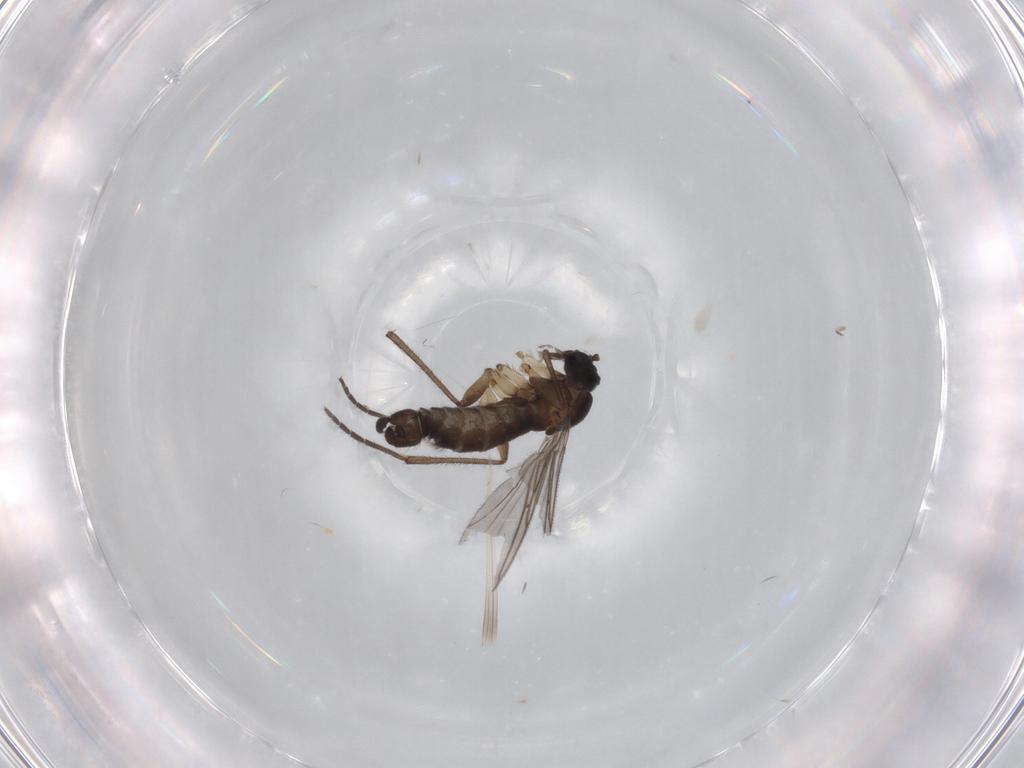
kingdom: Animalia
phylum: Arthropoda
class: Insecta
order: Diptera
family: Sciaridae
